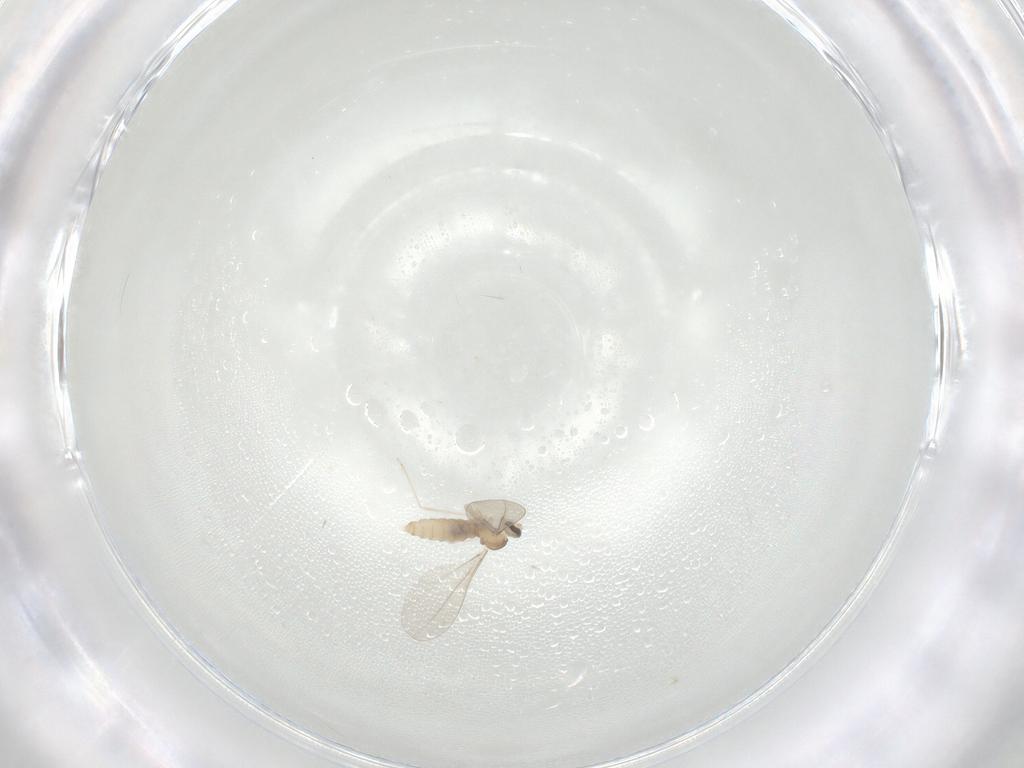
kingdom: Animalia
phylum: Arthropoda
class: Insecta
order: Diptera
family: Cecidomyiidae
